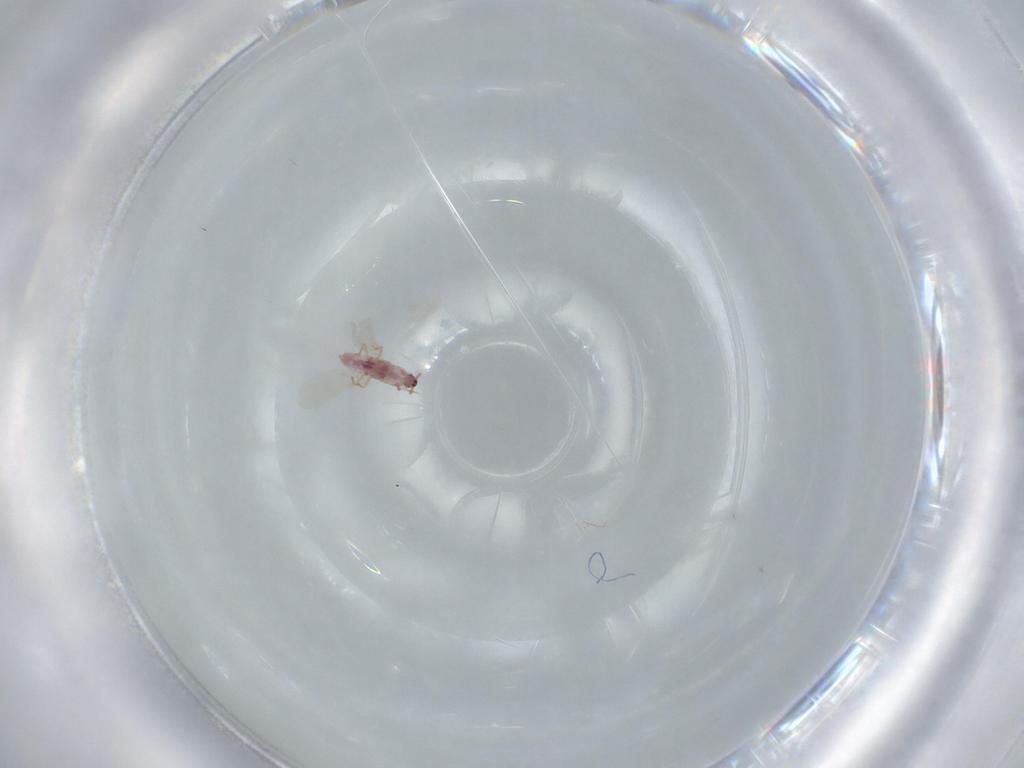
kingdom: Animalia
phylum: Arthropoda
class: Insecta
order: Hemiptera
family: Pseudococcidae
